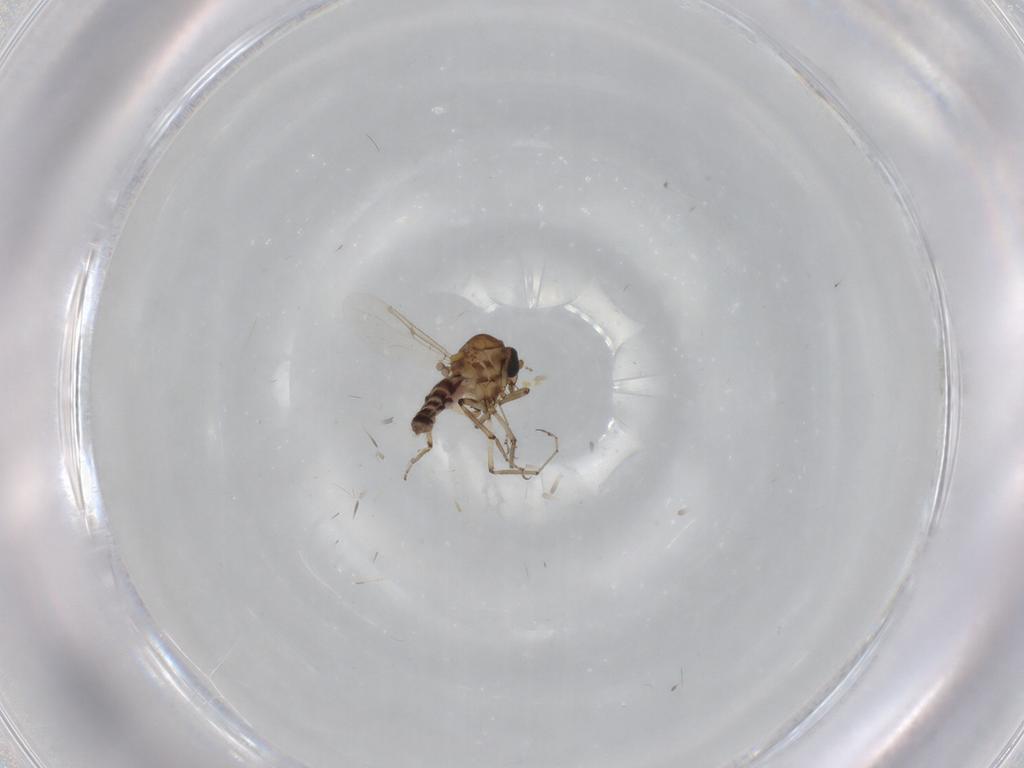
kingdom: Animalia
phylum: Arthropoda
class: Insecta
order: Diptera
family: Ceratopogonidae
